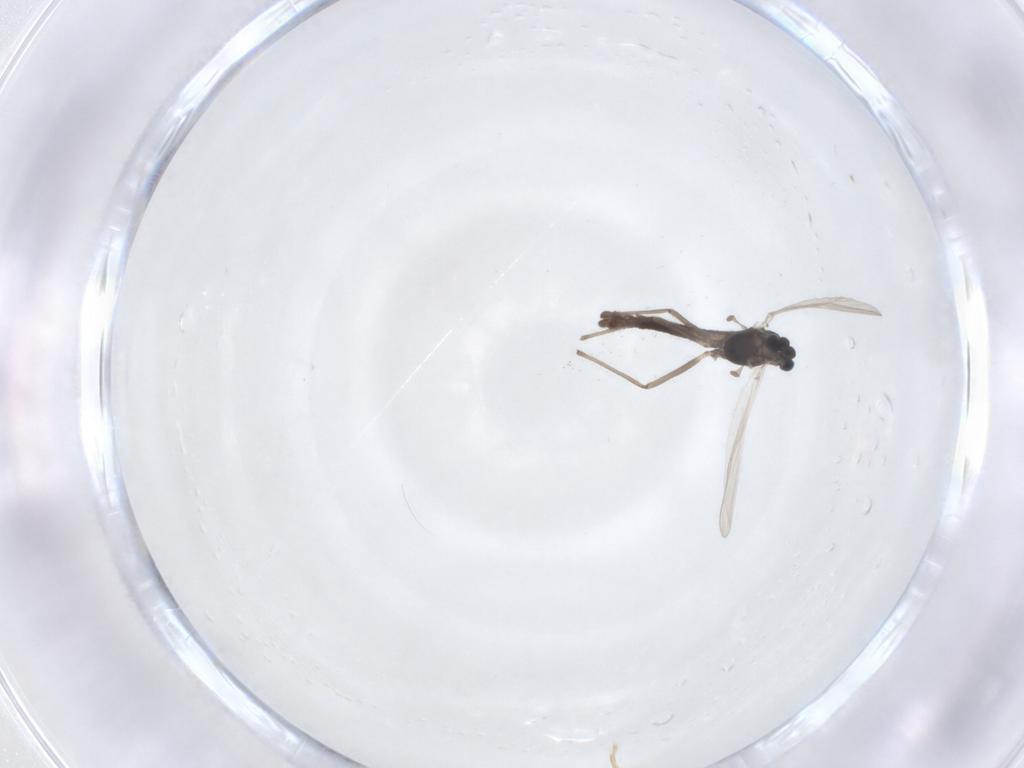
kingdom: Animalia
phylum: Arthropoda
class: Insecta
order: Diptera
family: Chironomidae
